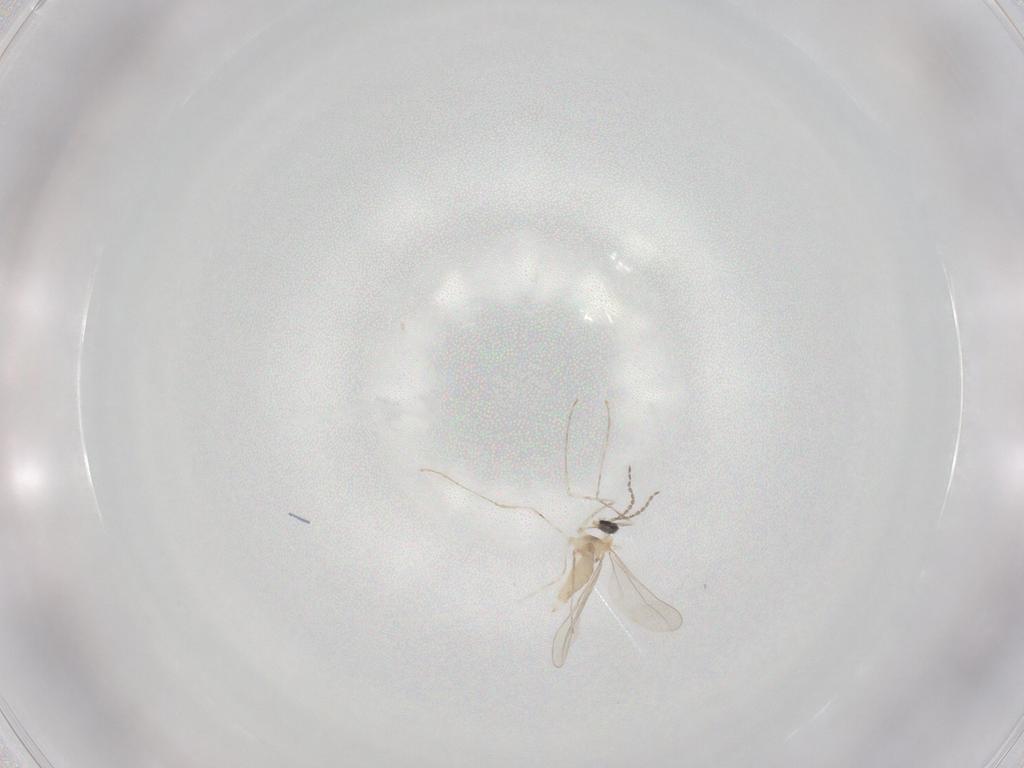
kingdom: Animalia
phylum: Arthropoda
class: Insecta
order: Diptera
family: Cecidomyiidae
